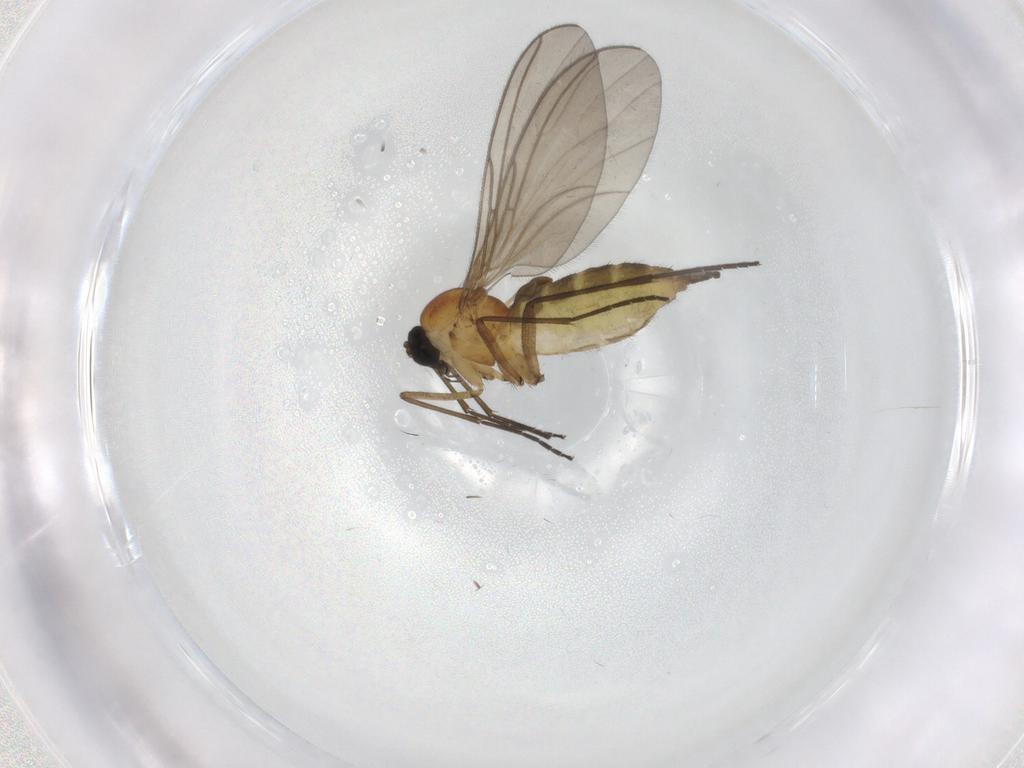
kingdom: Animalia
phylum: Arthropoda
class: Insecta
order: Diptera
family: Sciaridae
